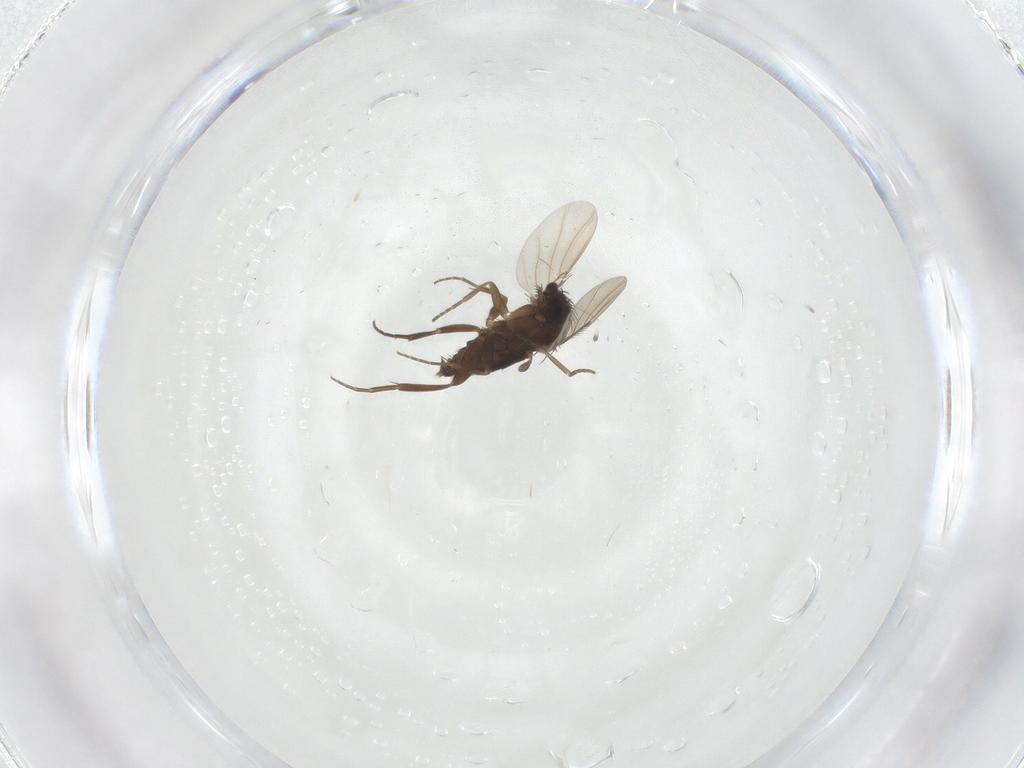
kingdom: Animalia
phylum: Arthropoda
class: Insecta
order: Diptera
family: Phoridae
